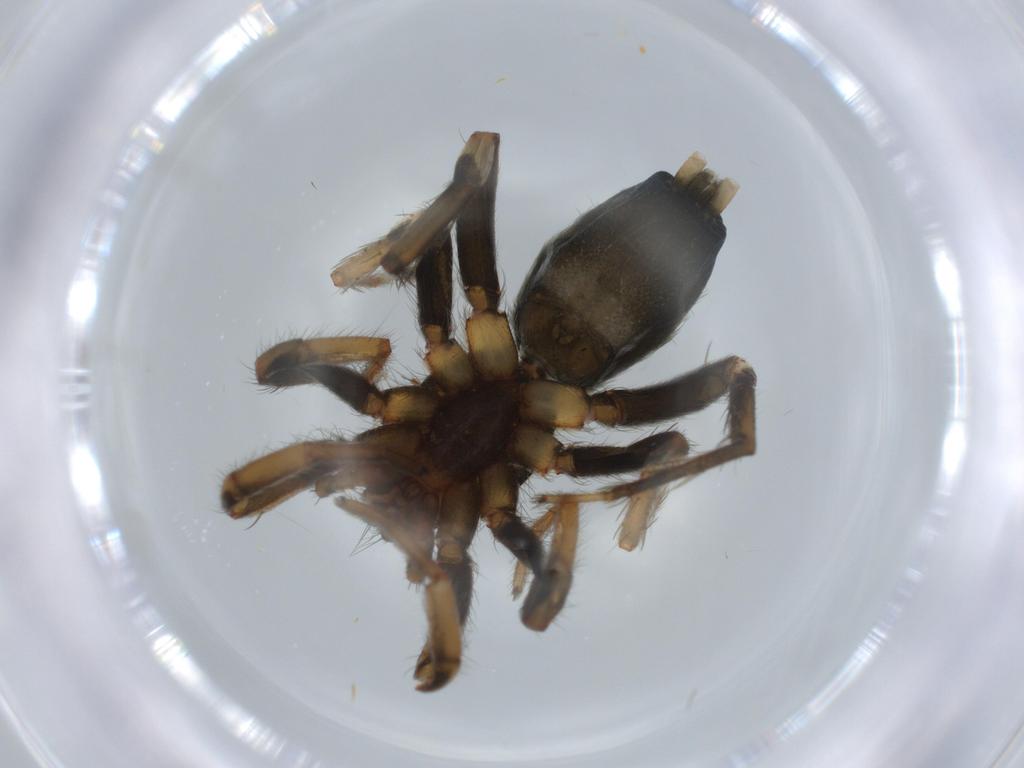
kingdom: Animalia
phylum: Arthropoda
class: Arachnida
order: Araneae
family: Gnaphosidae
